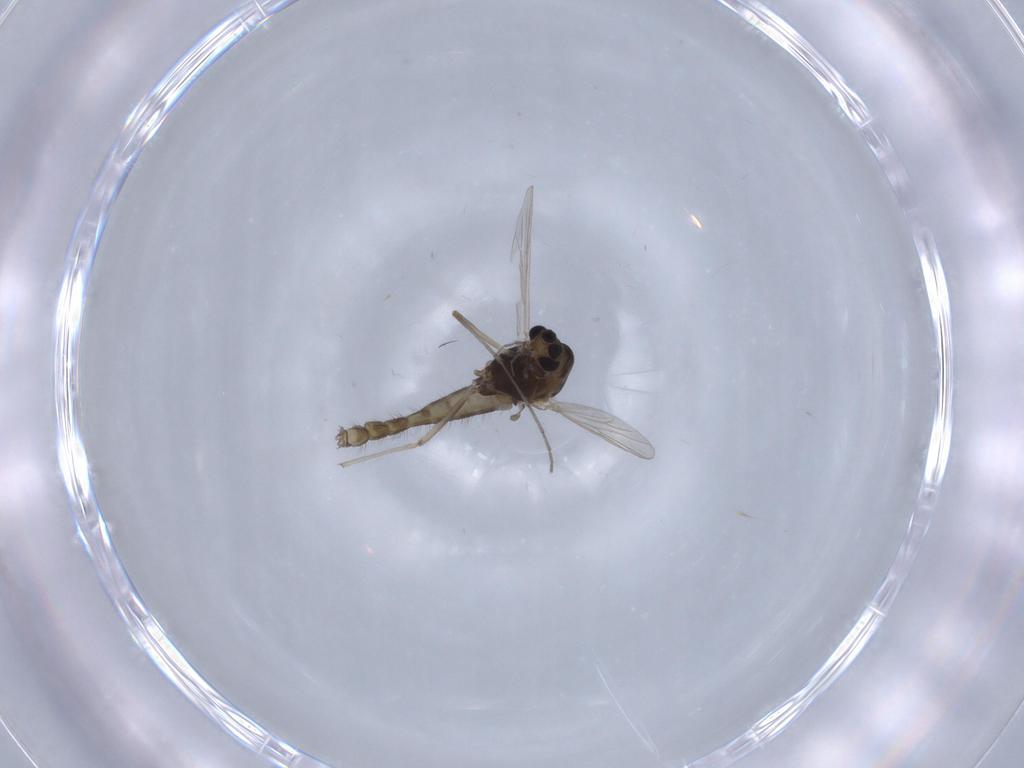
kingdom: Animalia
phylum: Arthropoda
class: Insecta
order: Diptera
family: Chironomidae
